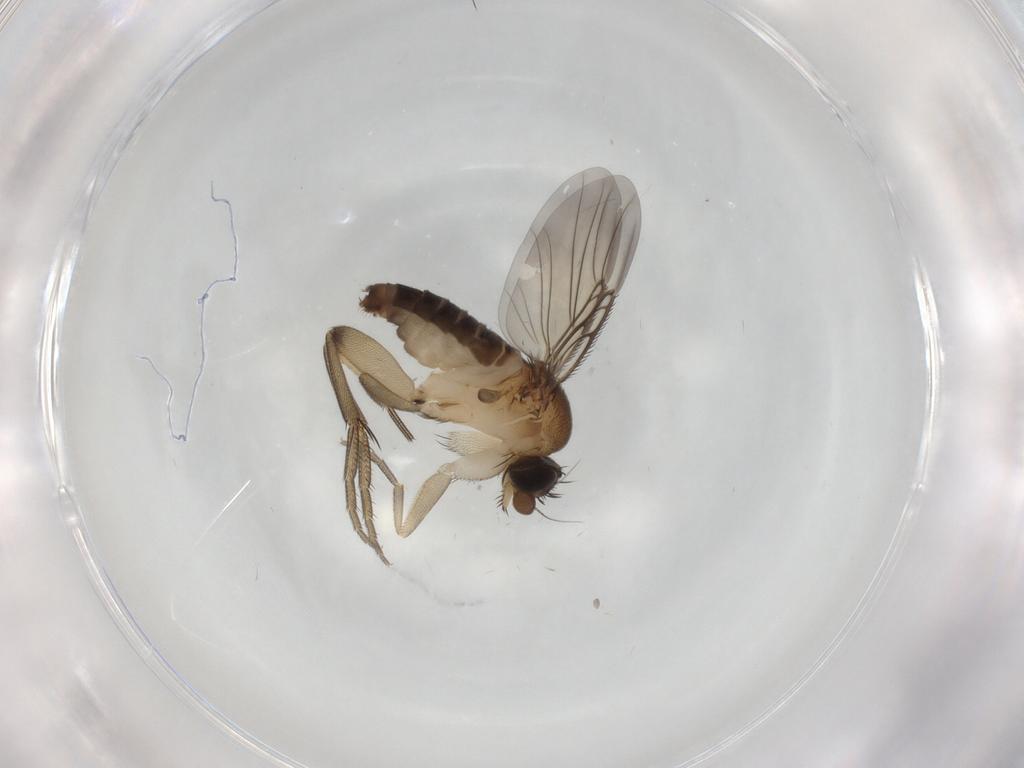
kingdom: Animalia
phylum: Arthropoda
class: Insecta
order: Diptera
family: Phoridae
